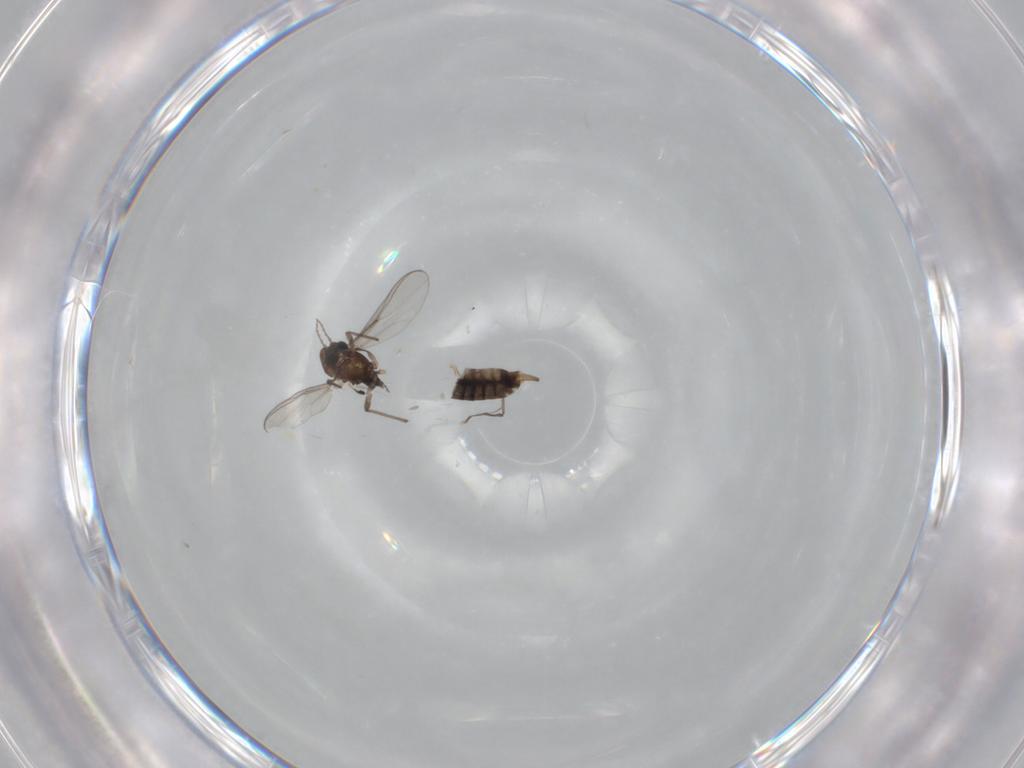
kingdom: Animalia
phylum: Arthropoda
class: Insecta
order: Diptera
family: Chironomidae
